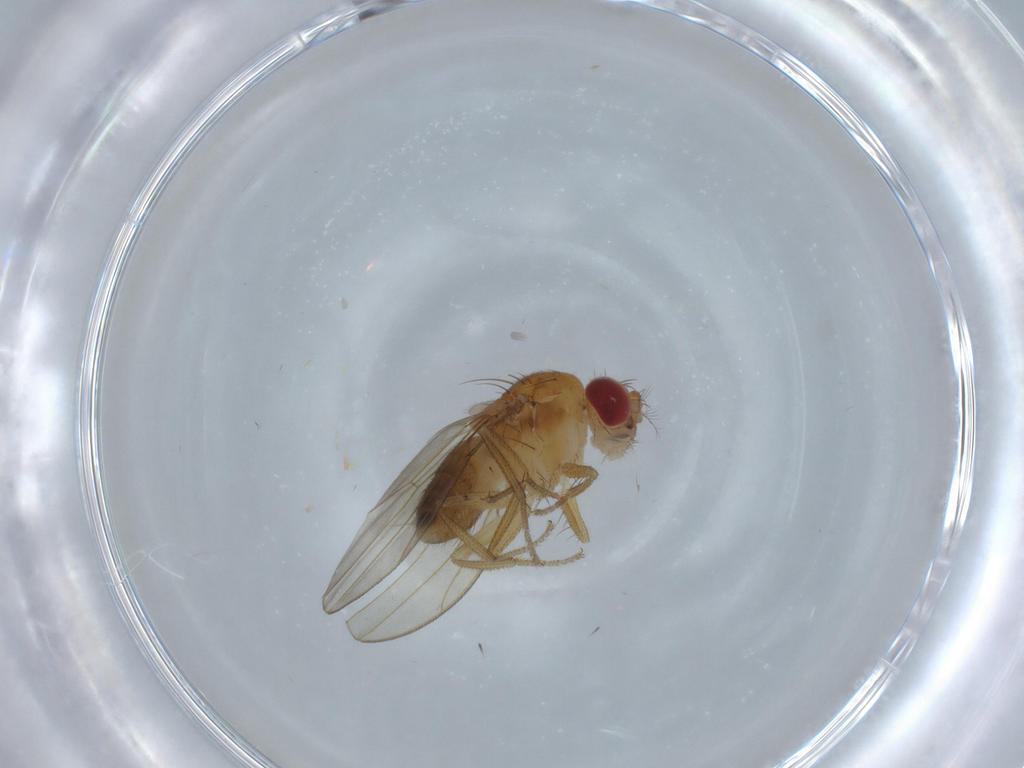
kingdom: Animalia
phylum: Arthropoda
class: Insecta
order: Diptera
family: Drosophilidae
